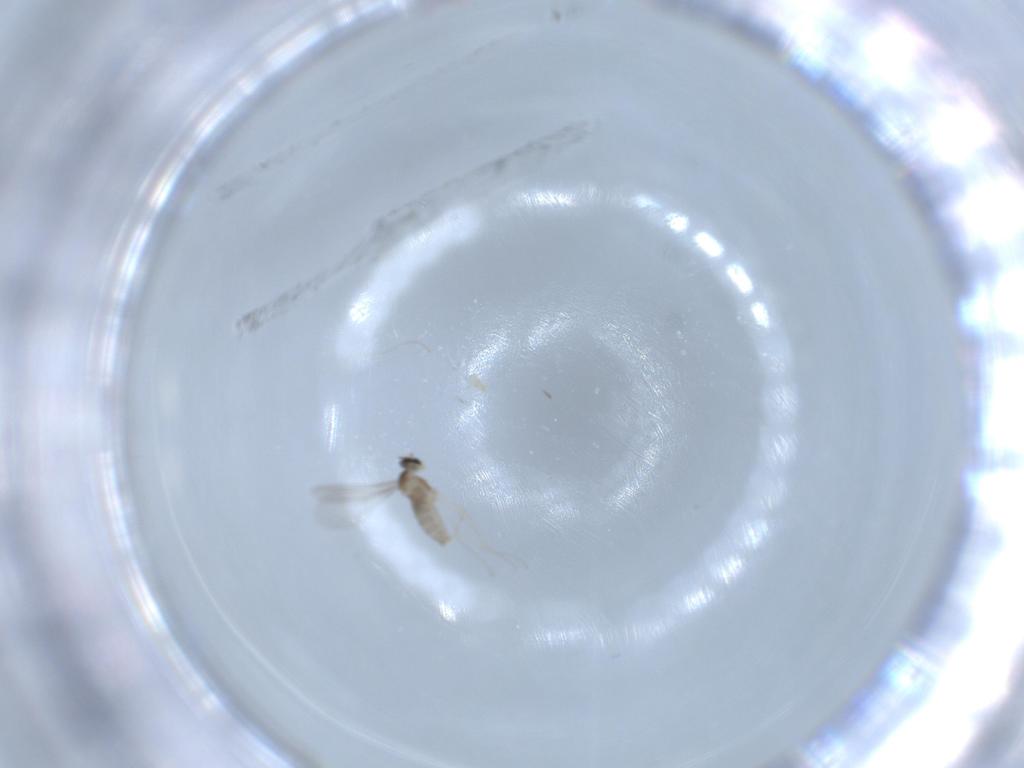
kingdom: Animalia
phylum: Arthropoda
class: Insecta
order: Diptera
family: Cecidomyiidae
